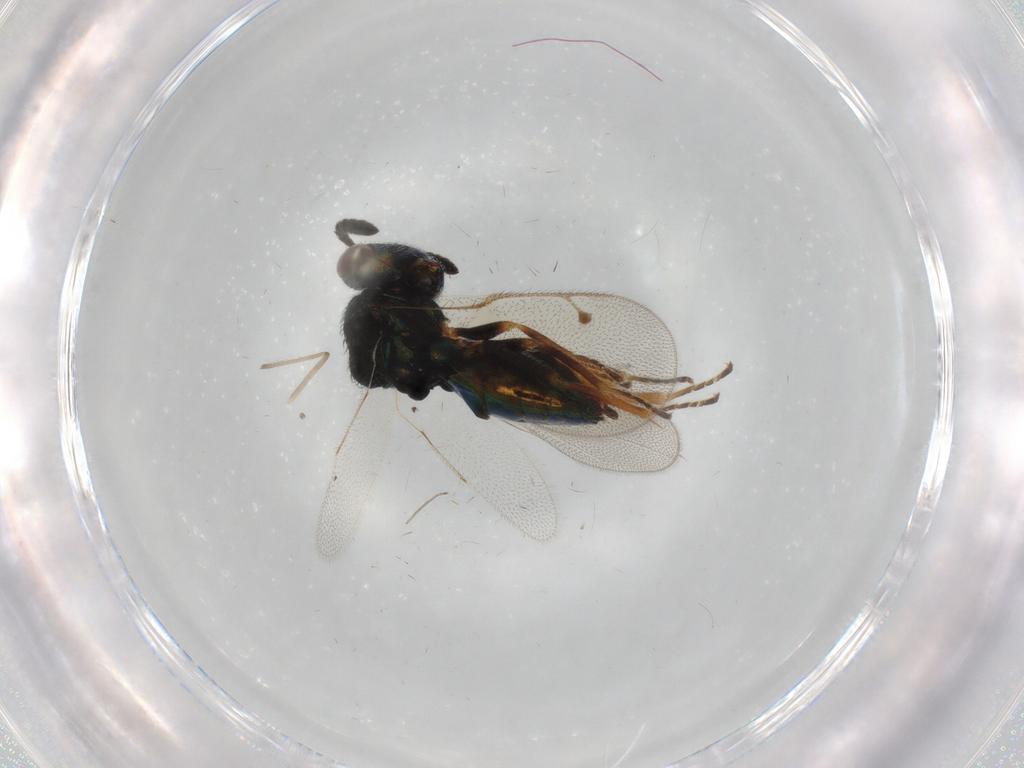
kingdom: Animalia
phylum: Arthropoda
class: Insecta
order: Hymenoptera
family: Pteromalidae
